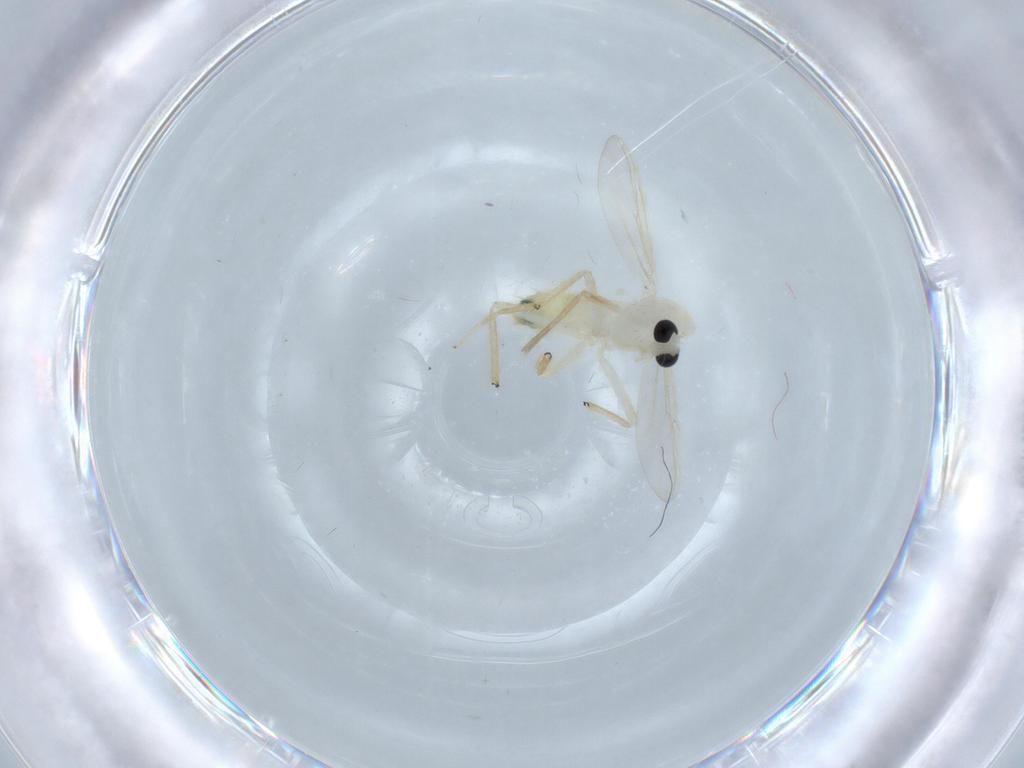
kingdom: Animalia
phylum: Arthropoda
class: Insecta
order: Diptera
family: Chironomidae
